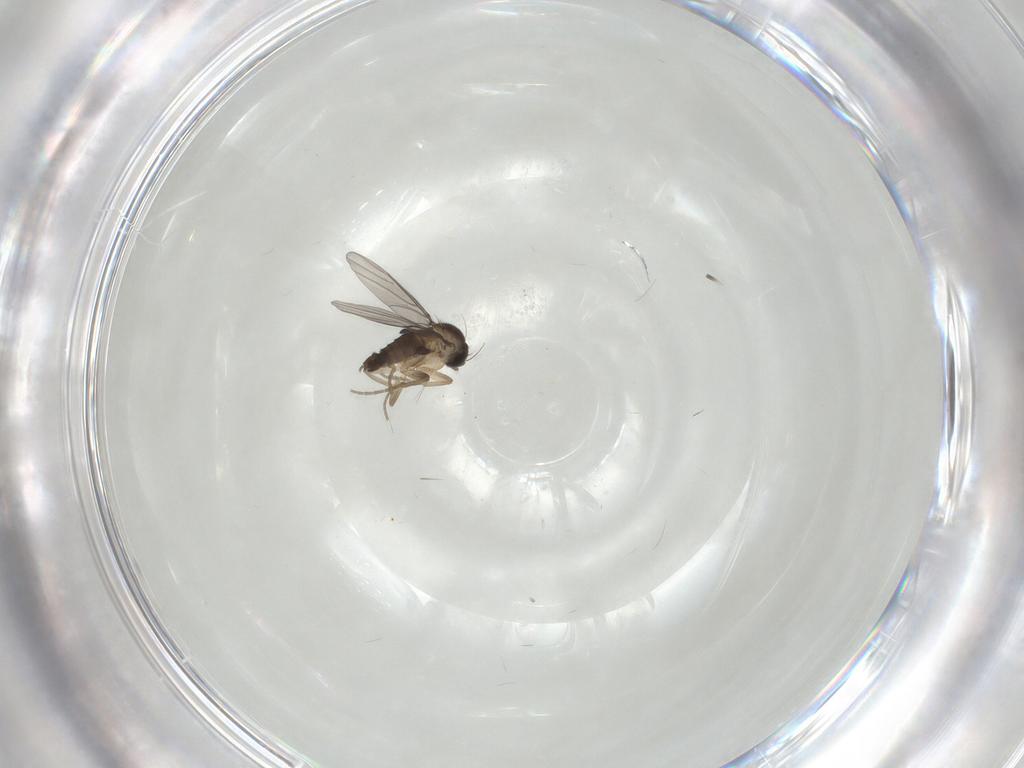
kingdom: Animalia
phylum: Arthropoda
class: Insecta
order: Diptera
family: Phoridae
